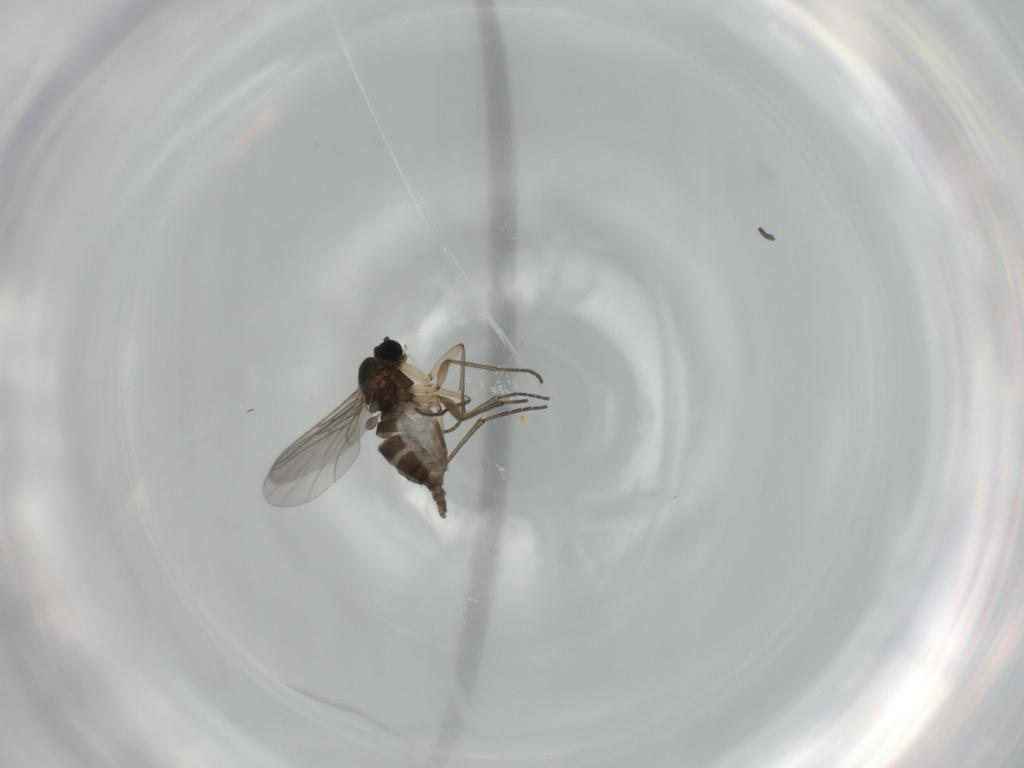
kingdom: Animalia
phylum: Arthropoda
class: Insecta
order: Diptera
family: Sciaridae
